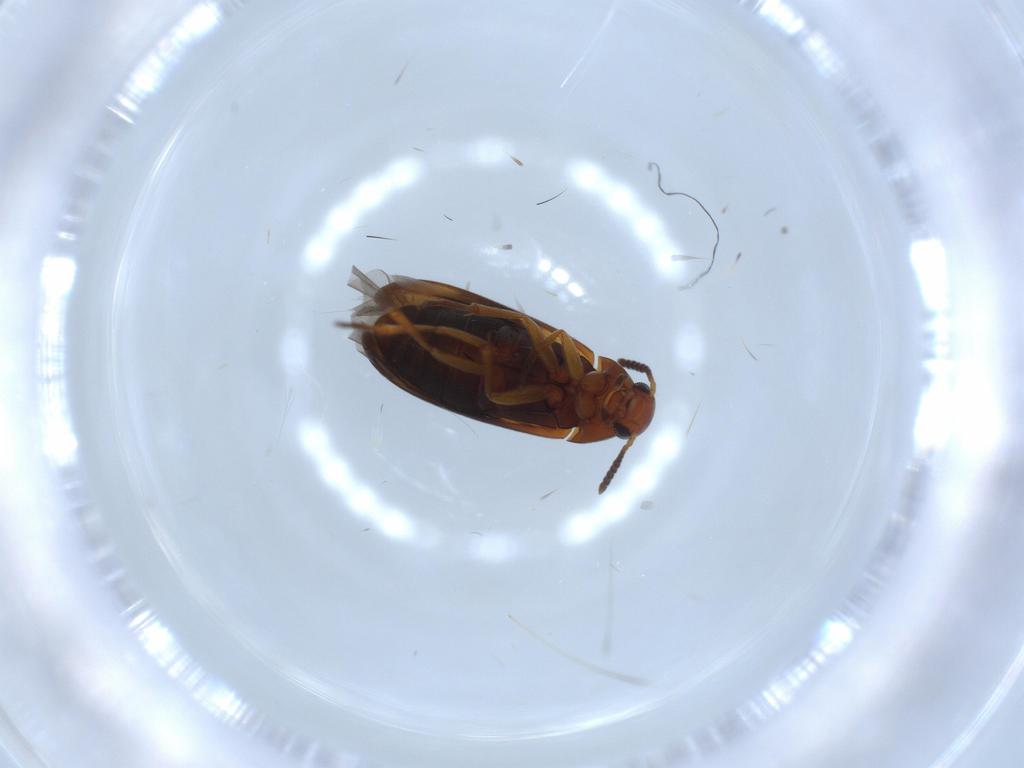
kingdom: Animalia
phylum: Arthropoda
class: Insecta
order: Coleoptera
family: Scraptiidae
